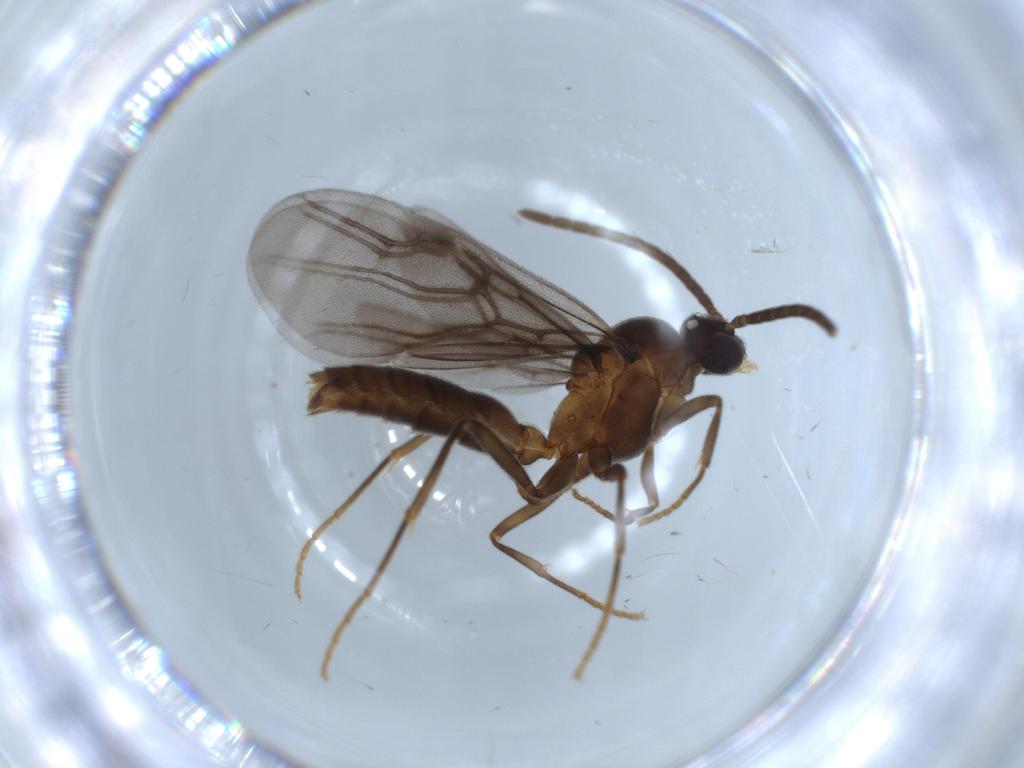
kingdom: Animalia
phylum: Arthropoda
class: Insecta
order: Hymenoptera
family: Formicidae
